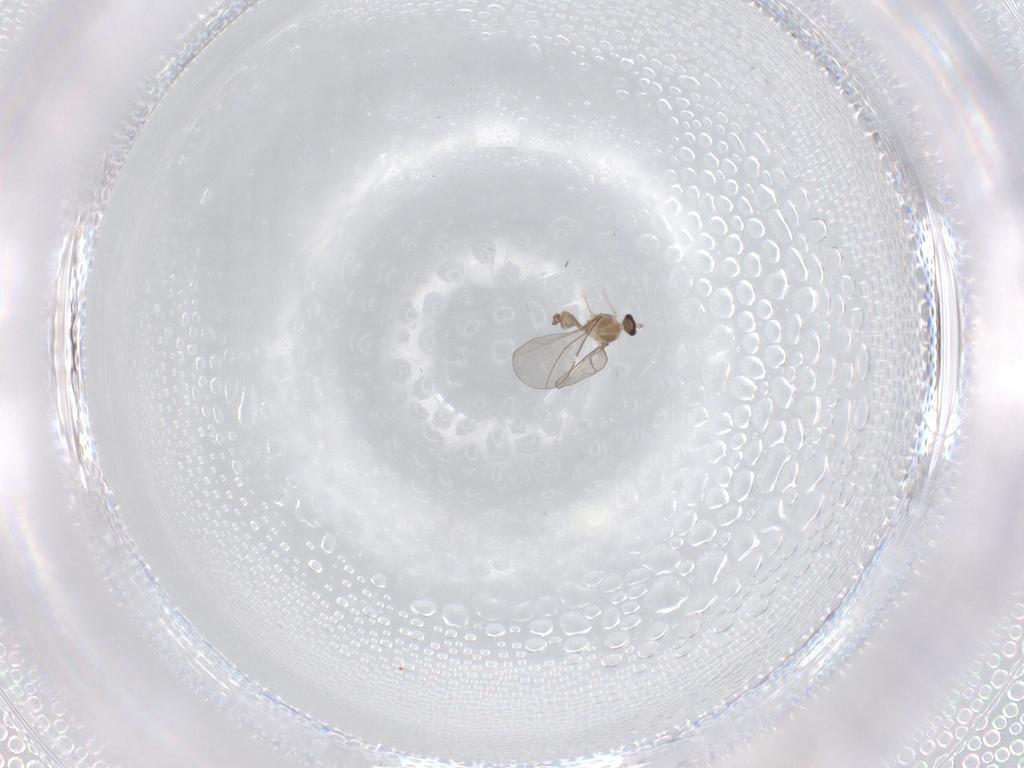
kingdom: Animalia
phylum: Arthropoda
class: Insecta
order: Diptera
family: Cecidomyiidae
